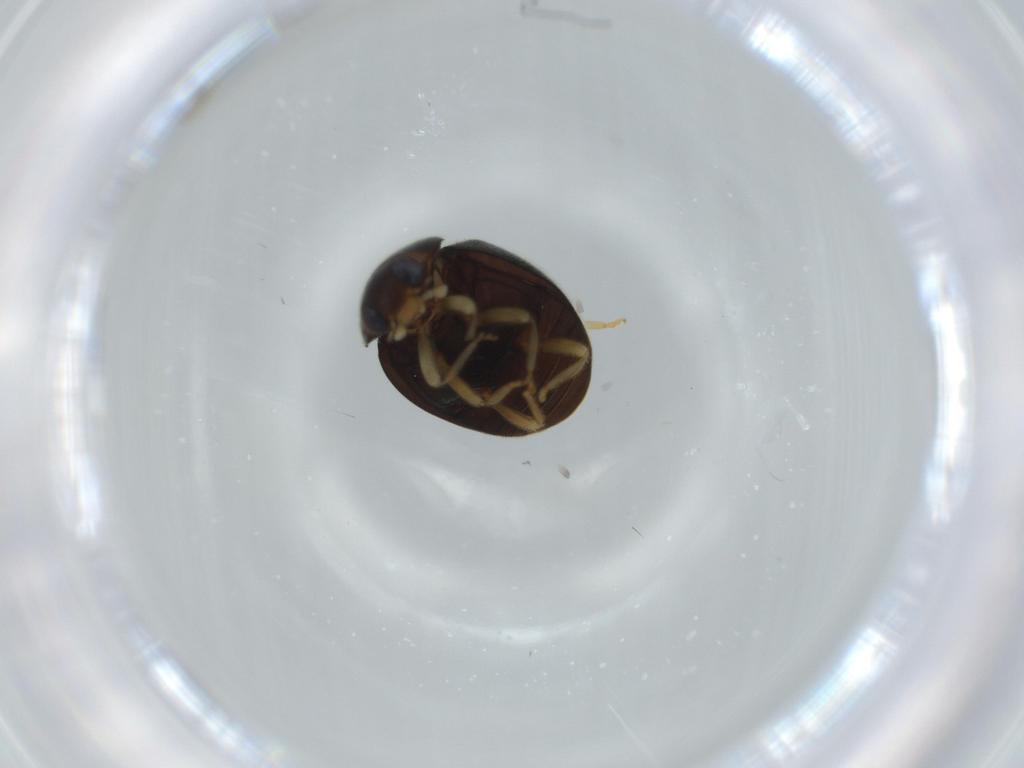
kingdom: Animalia
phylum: Arthropoda
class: Insecta
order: Coleoptera
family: Coccinellidae
